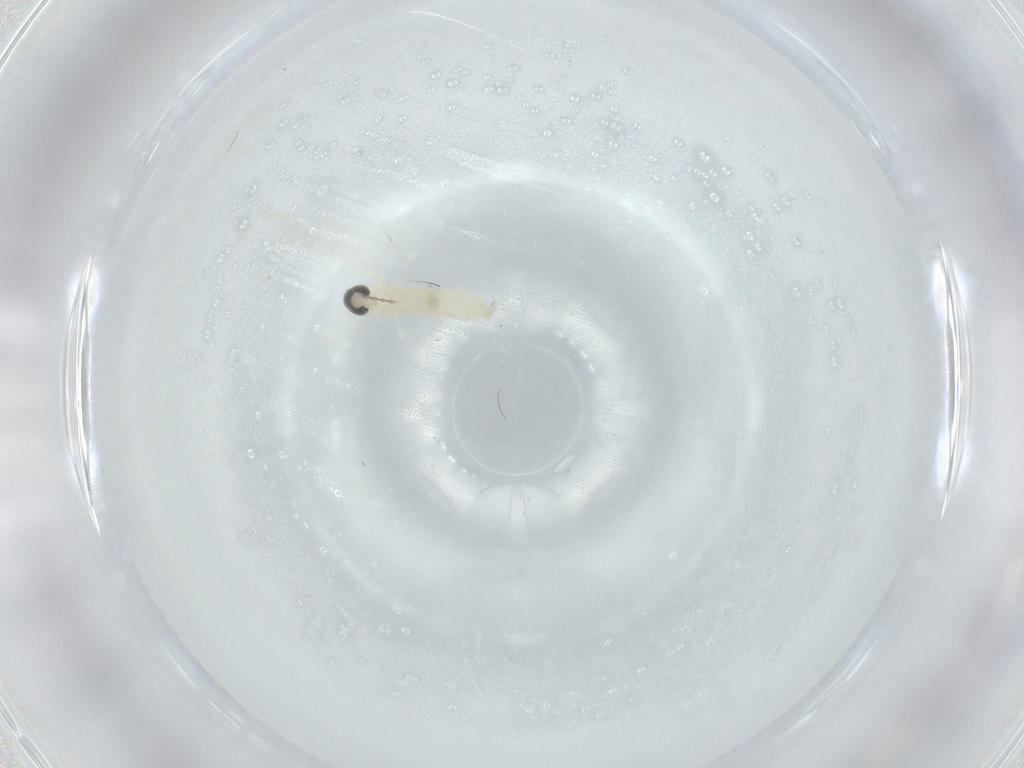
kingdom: Animalia
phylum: Arthropoda
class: Insecta
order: Diptera
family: Cecidomyiidae
